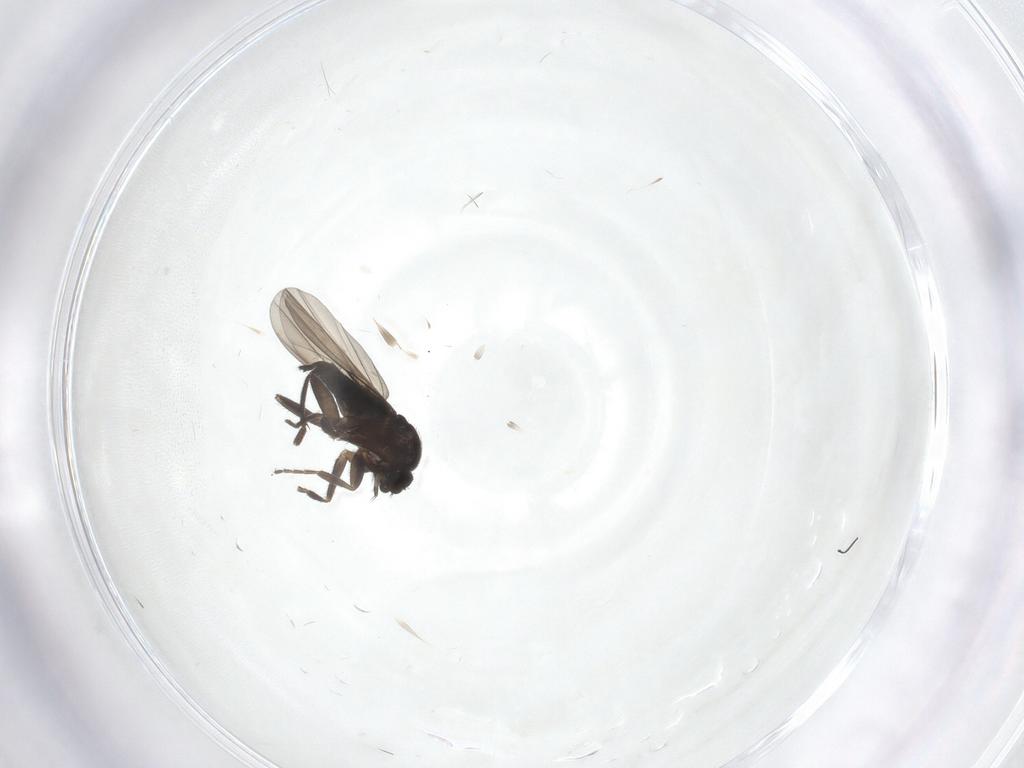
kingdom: Animalia
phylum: Arthropoda
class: Insecta
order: Diptera
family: Phoridae
